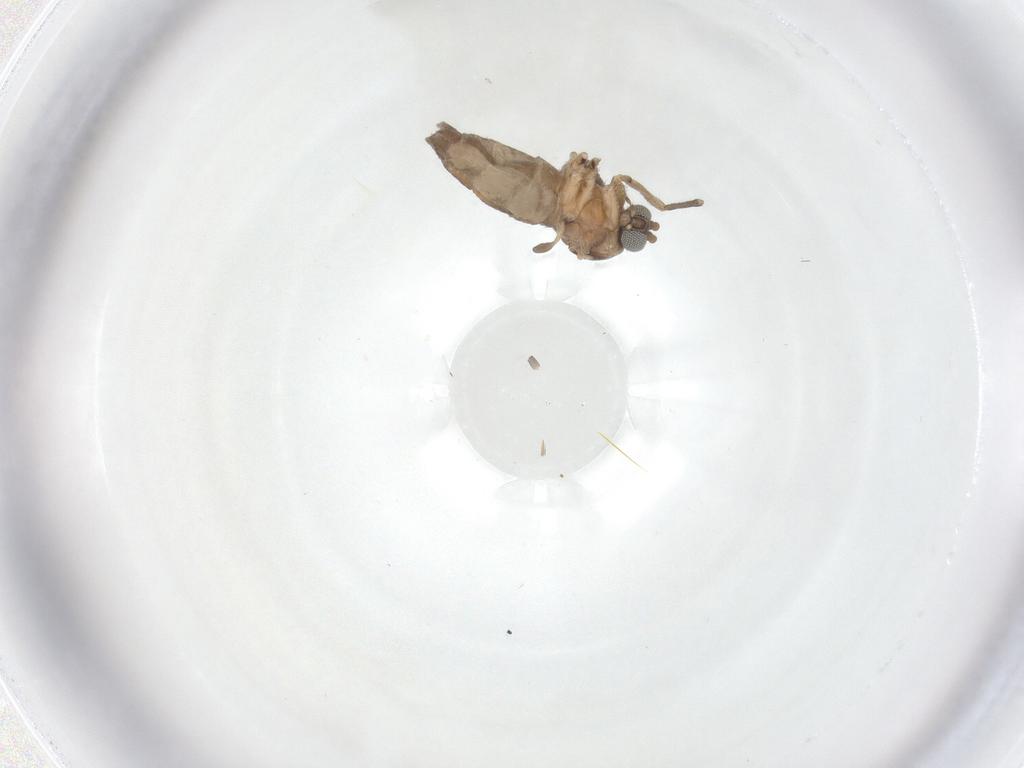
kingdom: Animalia
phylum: Arthropoda
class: Insecta
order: Diptera
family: Sciaridae
